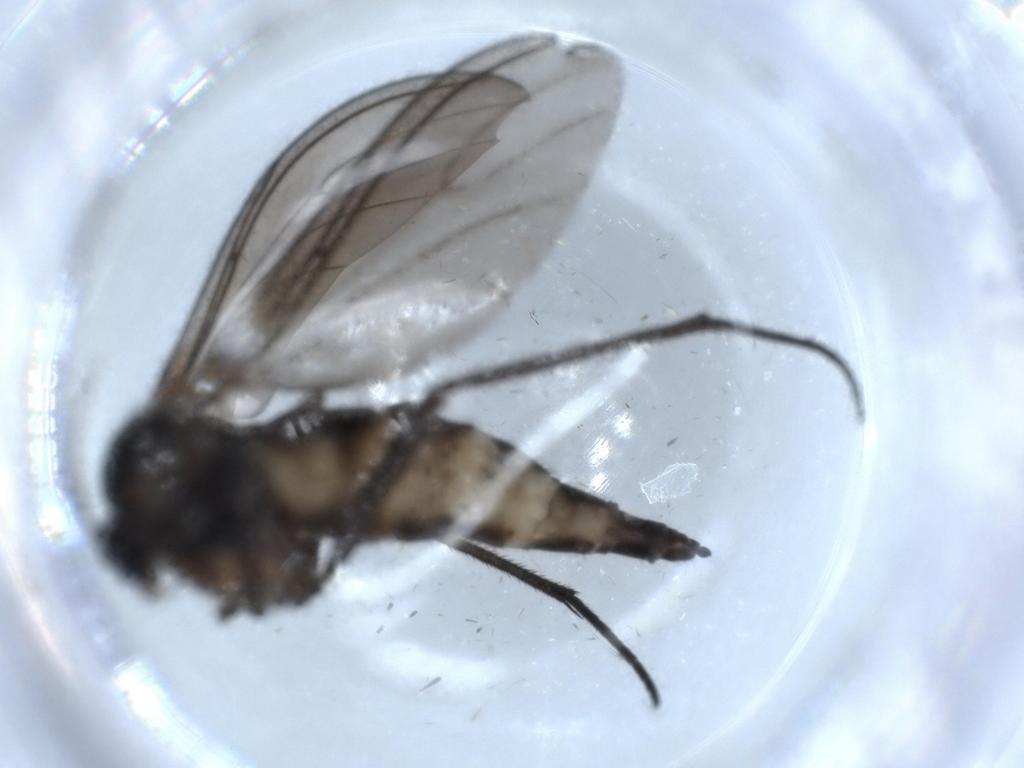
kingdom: Animalia
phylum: Arthropoda
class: Insecta
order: Diptera
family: Sciaridae
